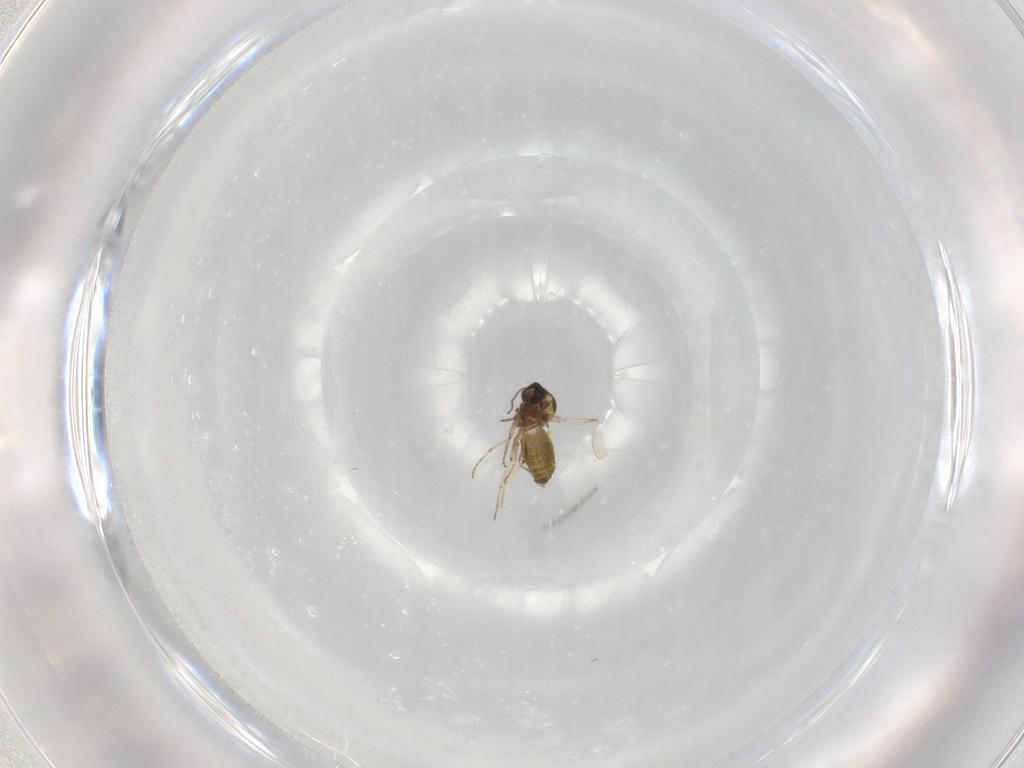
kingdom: Animalia
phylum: Arthropoda
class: Insecta
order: Diptera
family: Ceratopogonidae
